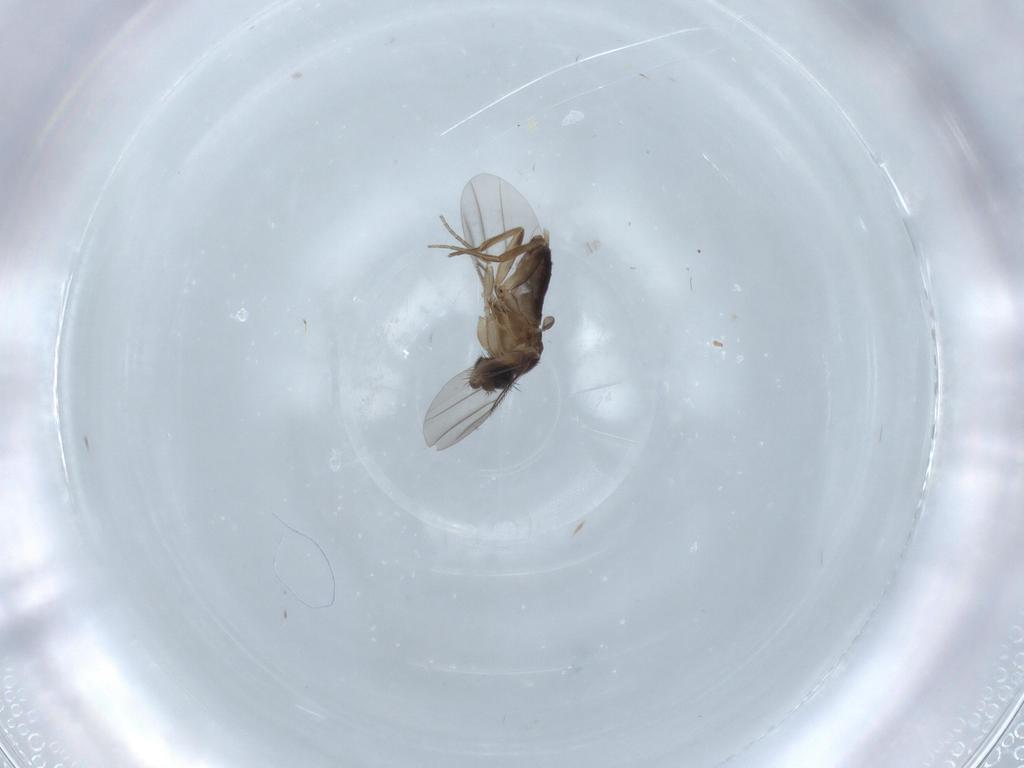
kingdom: Animalia
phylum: Arthropoda
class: Insecta
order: Diptera
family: Phoridae
